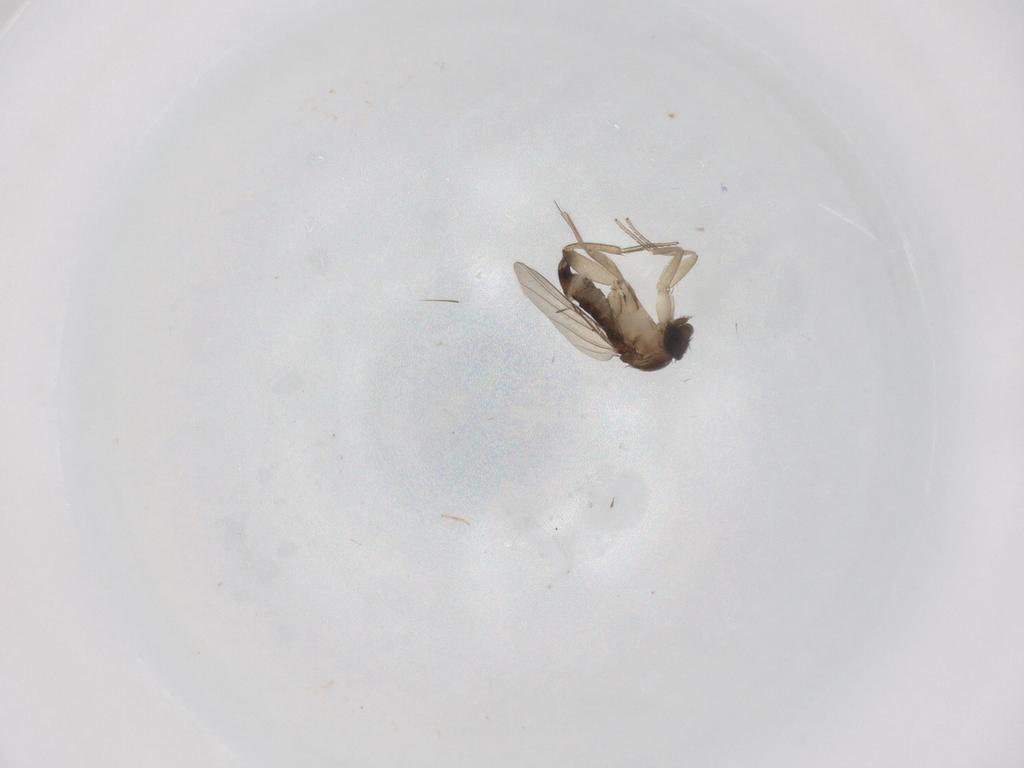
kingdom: Animalia
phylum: Arthropoda
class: Insecta
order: Diptera
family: Phoridae
